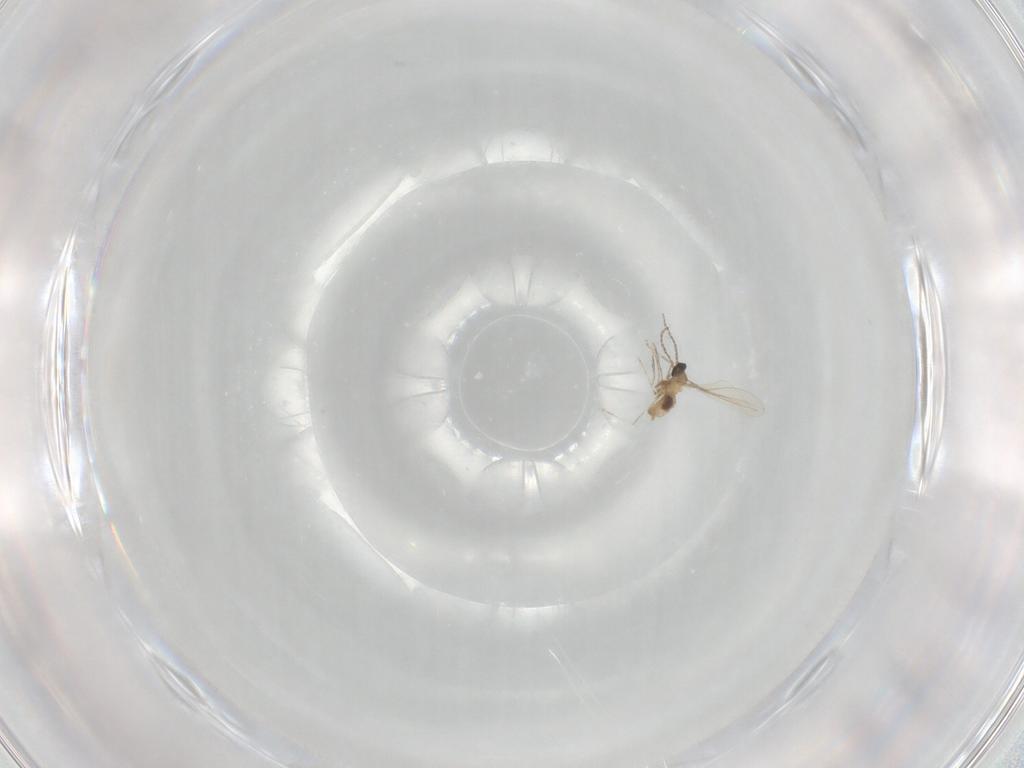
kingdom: Animalia
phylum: Arthropoda
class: Insecta
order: Diptera
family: Cecidomyiidae
